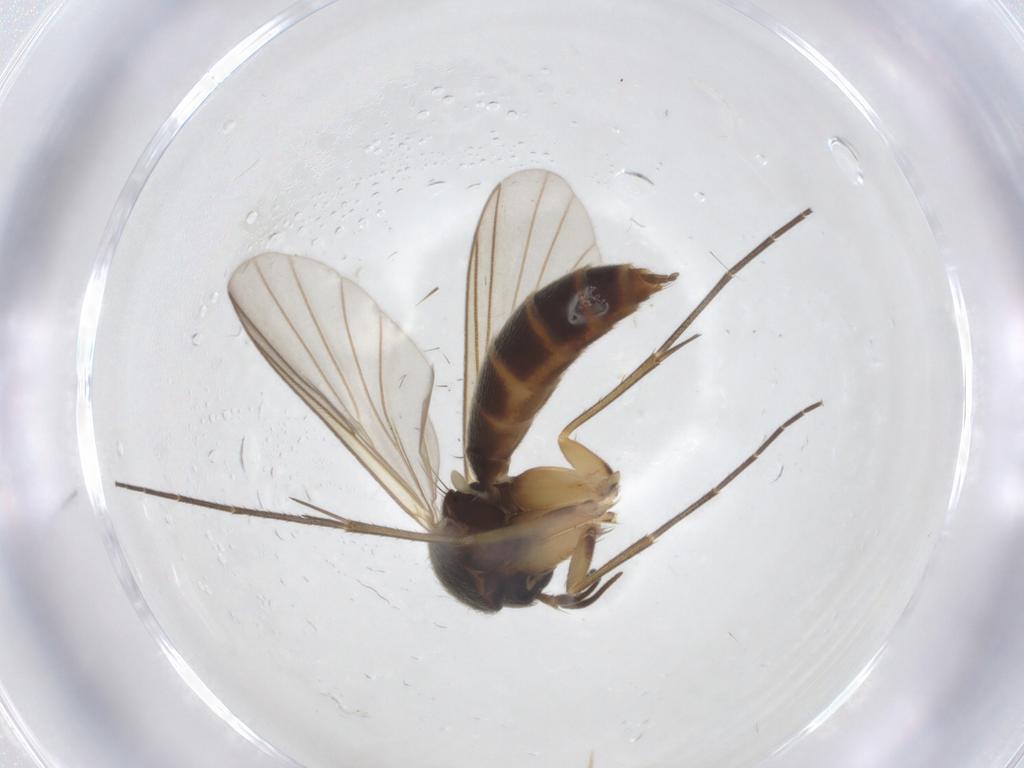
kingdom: Animalia
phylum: Arthropoda
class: Insecta
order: Diptera
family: Mycetophilidae
